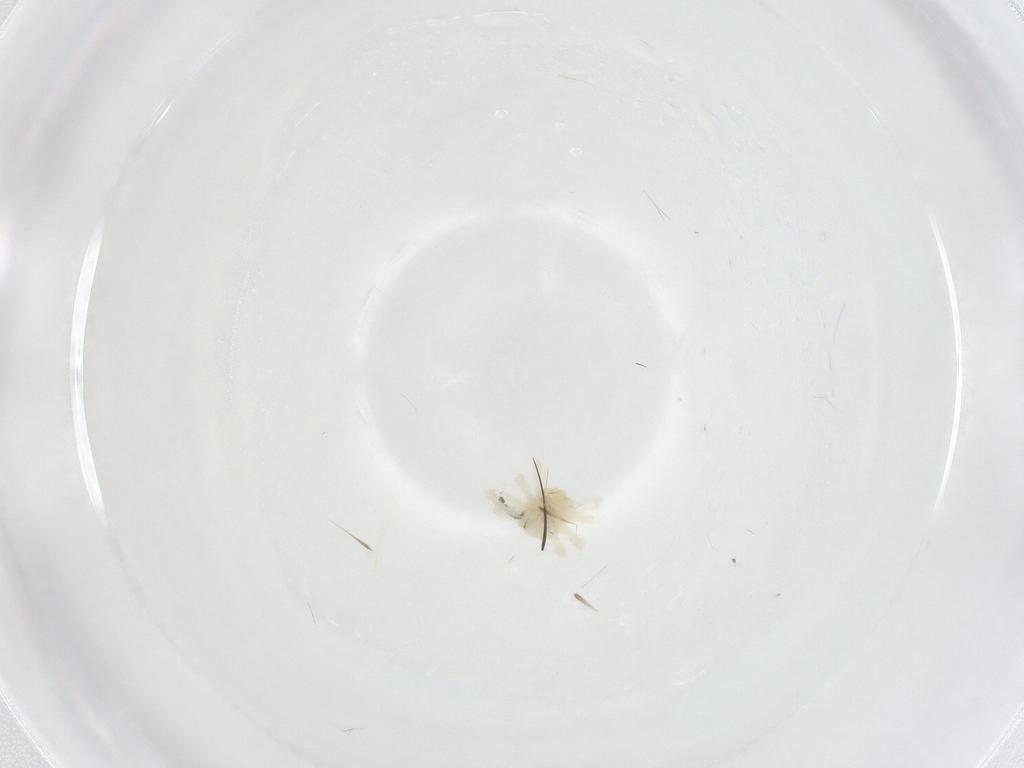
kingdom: Animalia
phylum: Arthropoda
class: Arachnida
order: Trombidiformes
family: Anystidae
